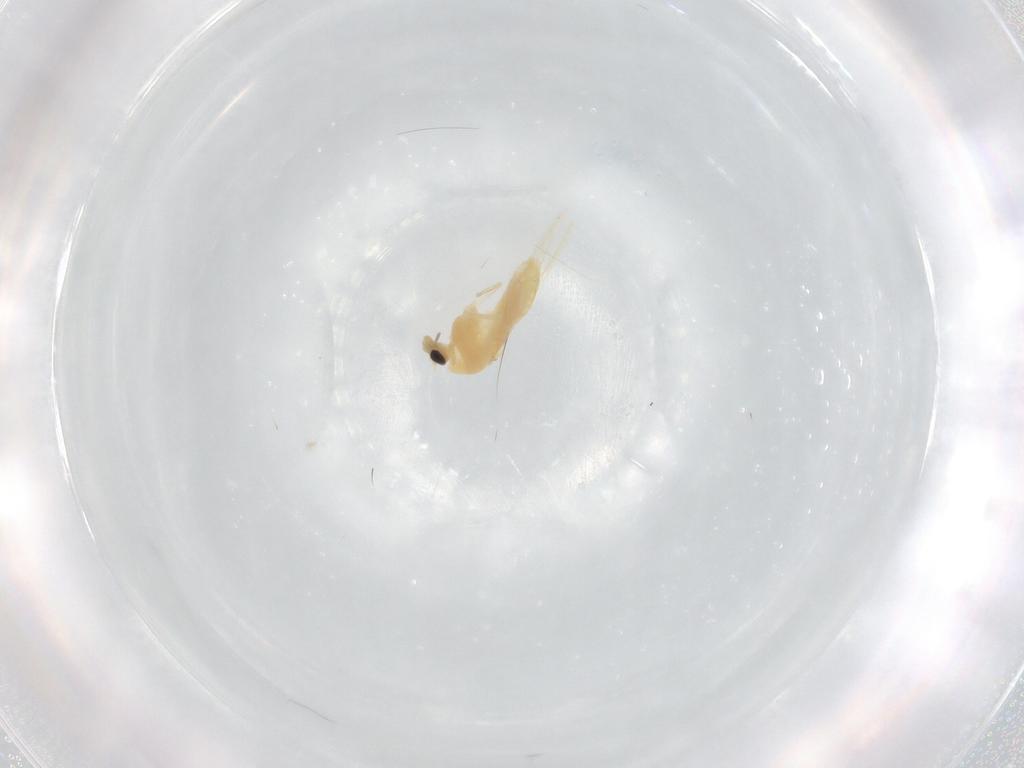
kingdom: Animalia
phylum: Arthropoda
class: Insecta
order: Diptera
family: Chironomidae
